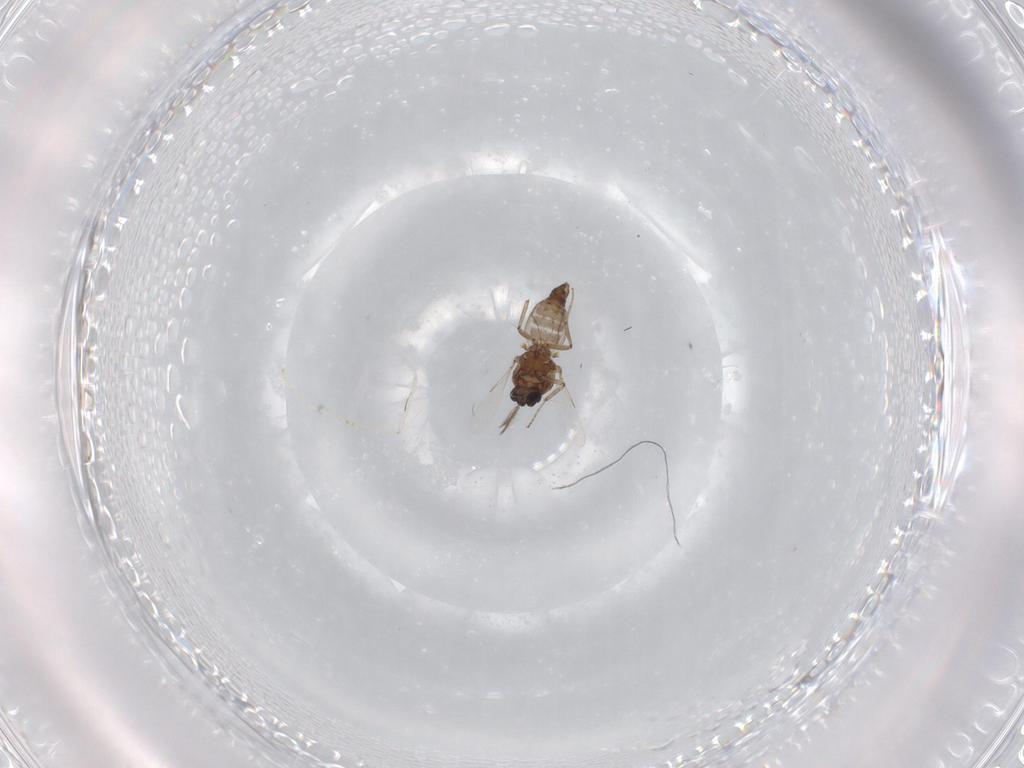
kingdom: Animalia
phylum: Arthropoda
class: Insecta
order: Diptera
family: Ceratopogonidae
